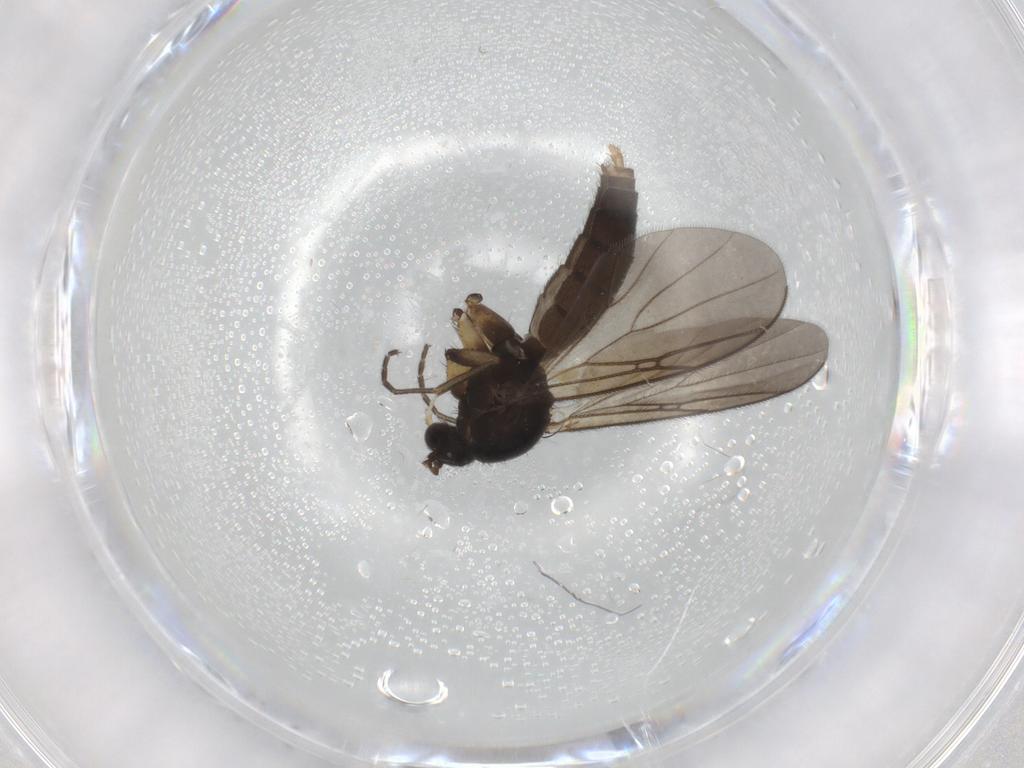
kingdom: Animalia
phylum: Arthropoda
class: Insecta
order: Diptera
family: Mycetophilidae
